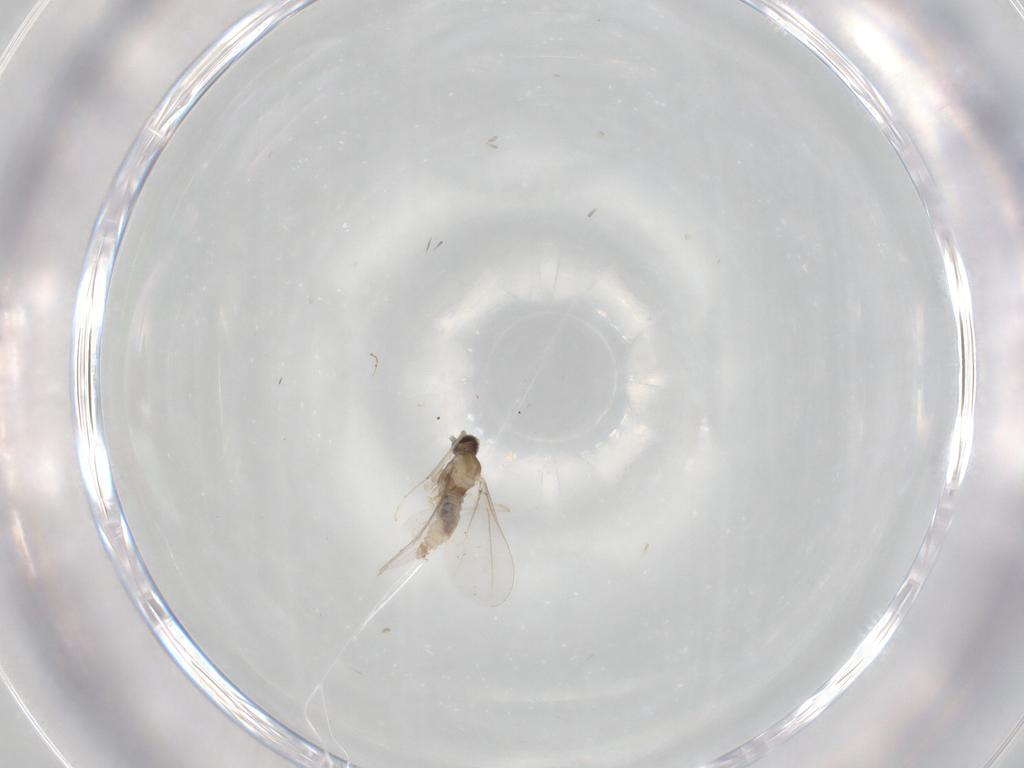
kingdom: Animalia
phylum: Arthropoda
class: Insecta
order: Diptera
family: Cecidomyiidae
